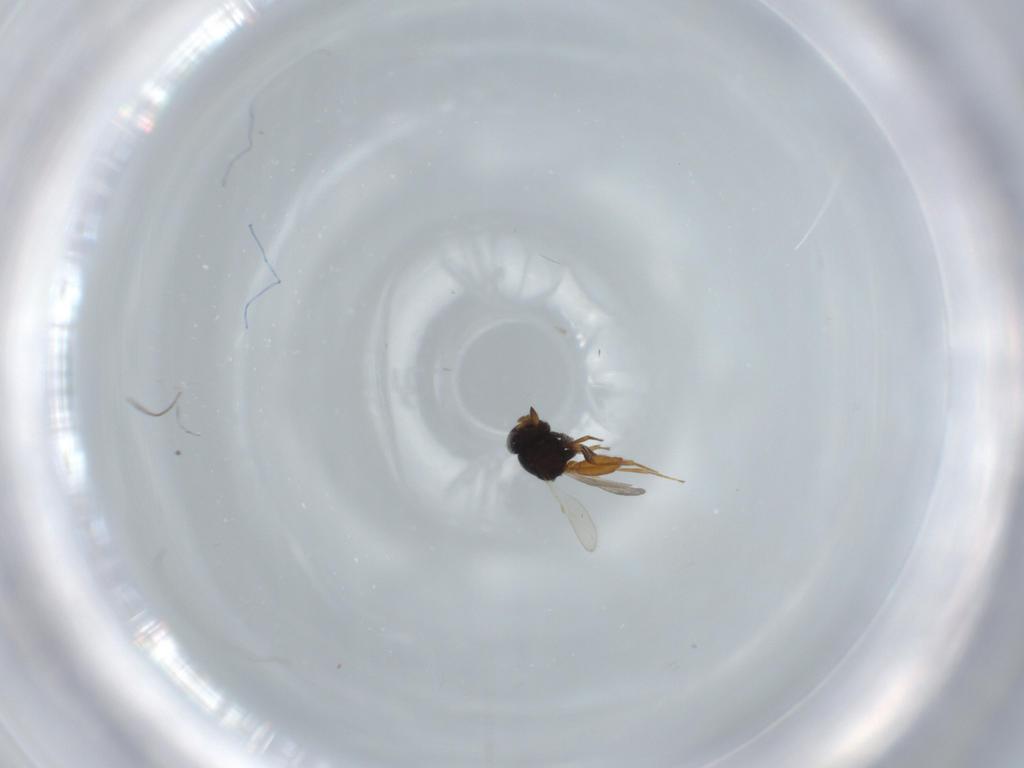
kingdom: Animalia
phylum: Arthropoda
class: Insecta
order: Hymenoptera
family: Scelionidae
